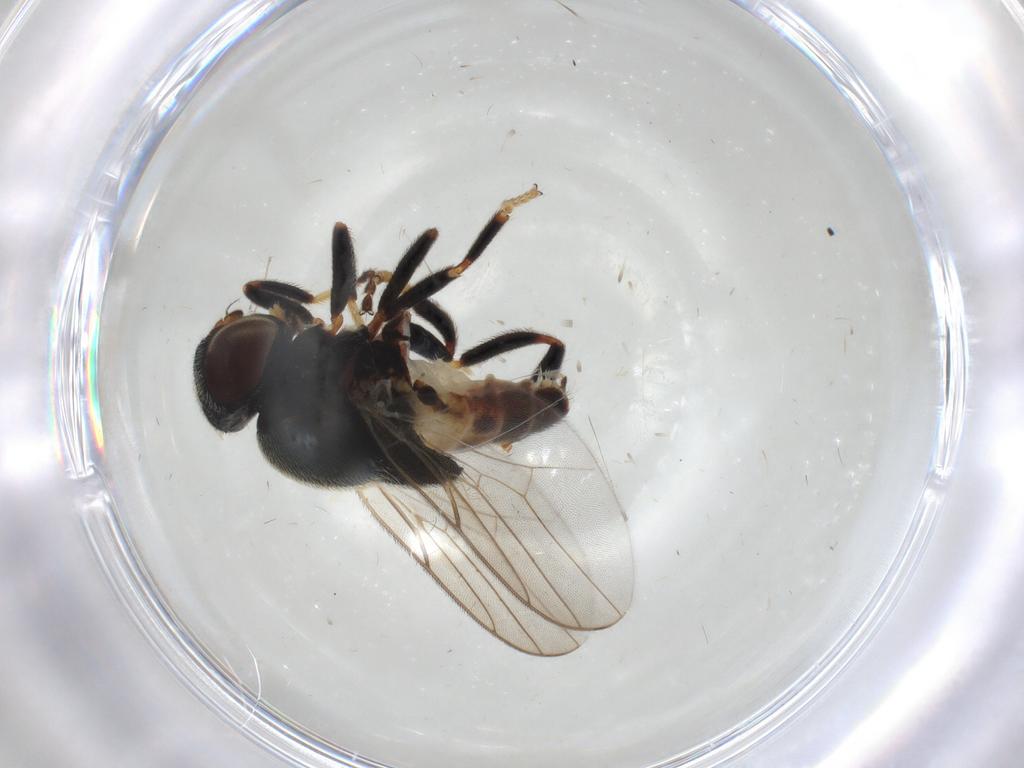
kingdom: Animalia
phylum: Arthropoda
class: Insecta
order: Diptera
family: Chloropidae
